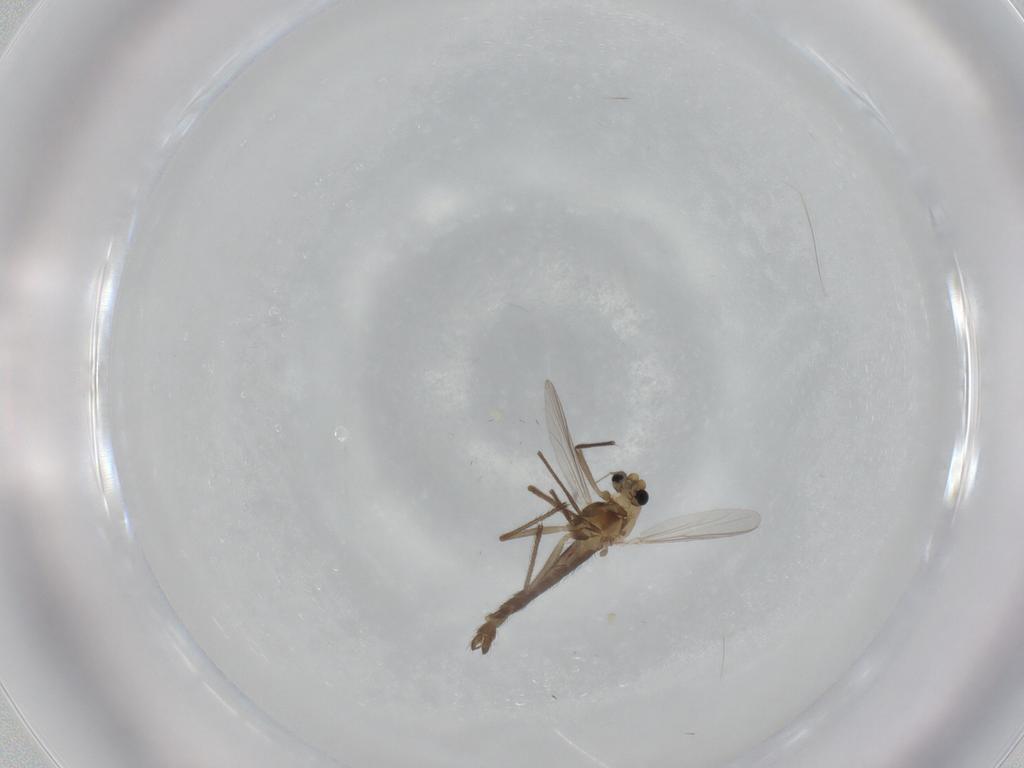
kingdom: Animalia
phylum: Arthropoda
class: Insecta
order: Diptera
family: Chironomidae
